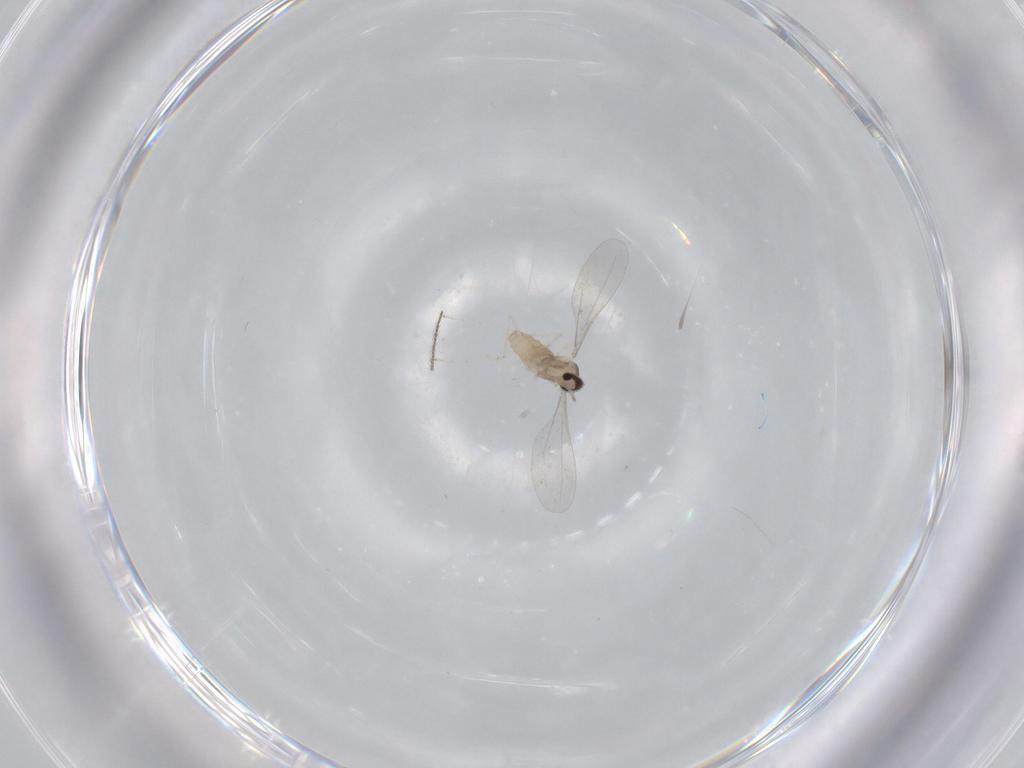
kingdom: Animalia
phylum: Arthropoda
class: Insecta
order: Diptera
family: Cecidomyiidae
